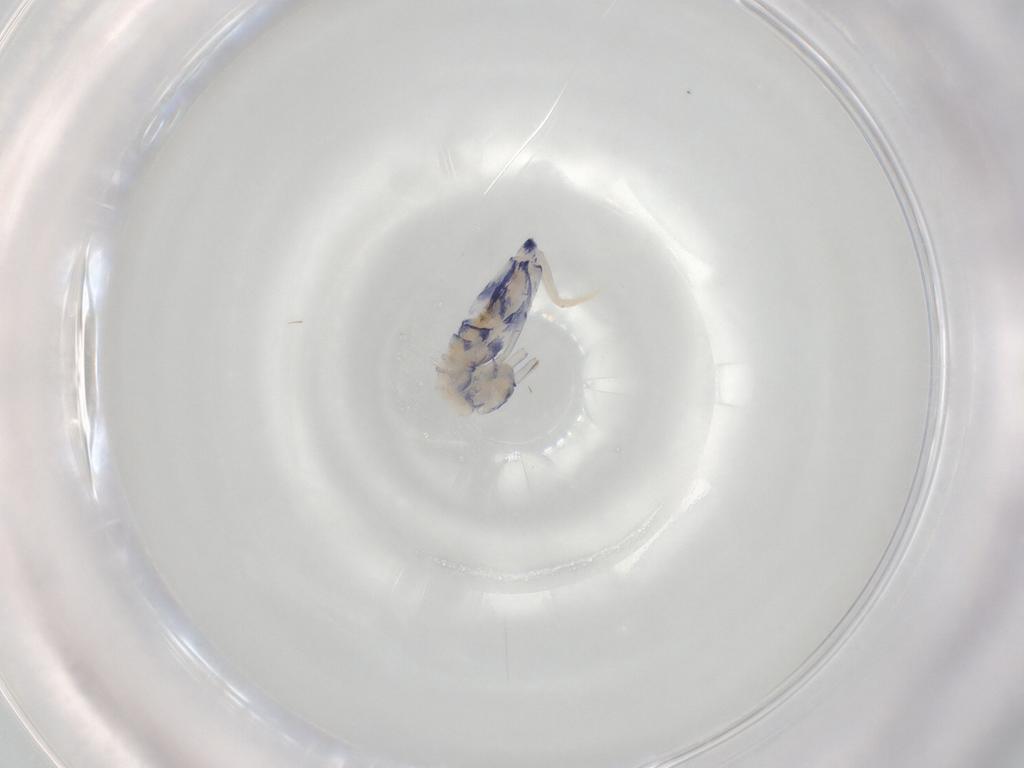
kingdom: Animalia
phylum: Arthropoda
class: Collembola
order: Entomobryomorpha
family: Entomobryidae
